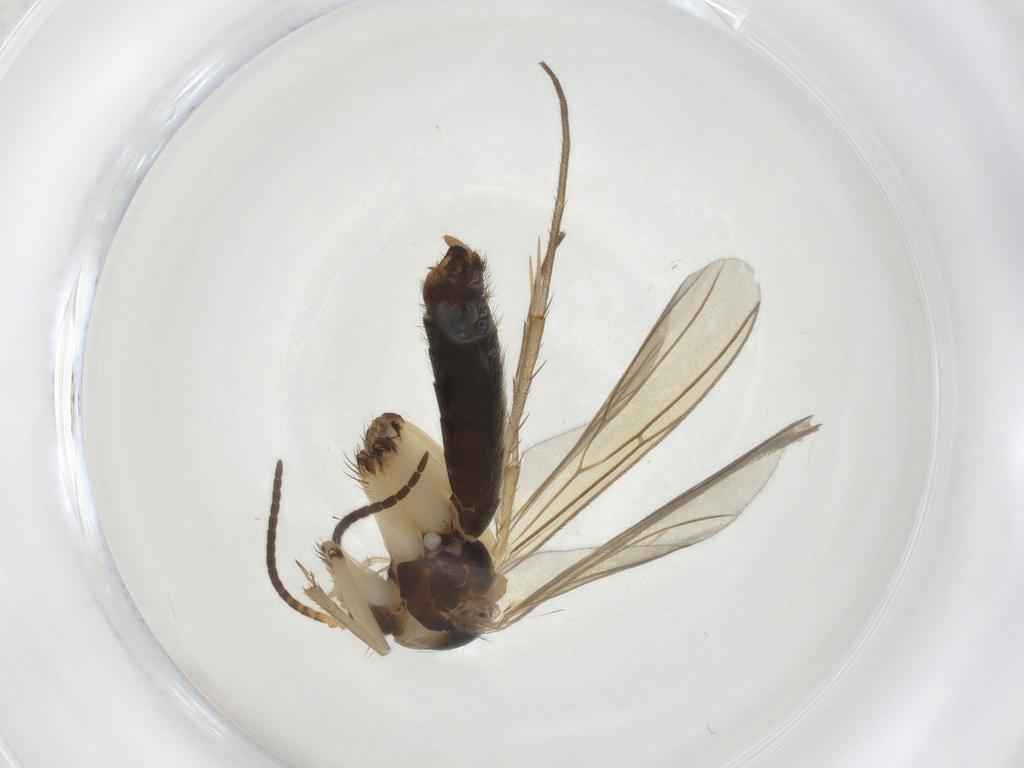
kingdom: Animalia
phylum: Arthropoda
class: Insecta
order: Diptera
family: Mycetophilidae
